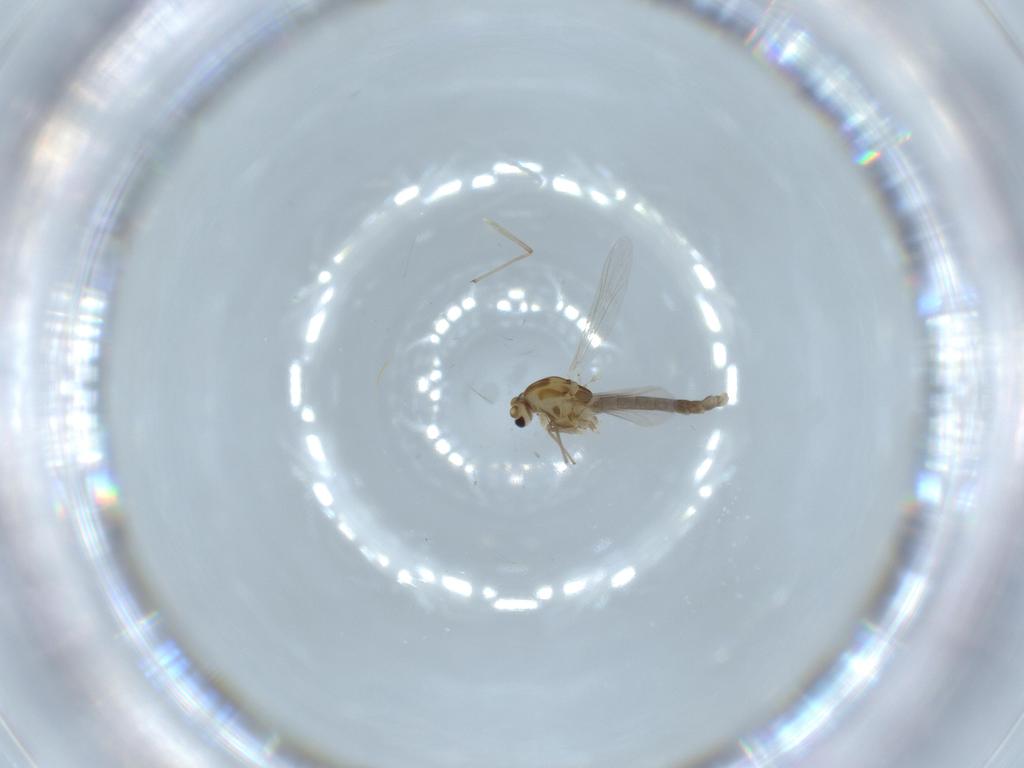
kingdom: Animalia
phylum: Arthropoda
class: Insecta
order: Diptera
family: Chironomidae
